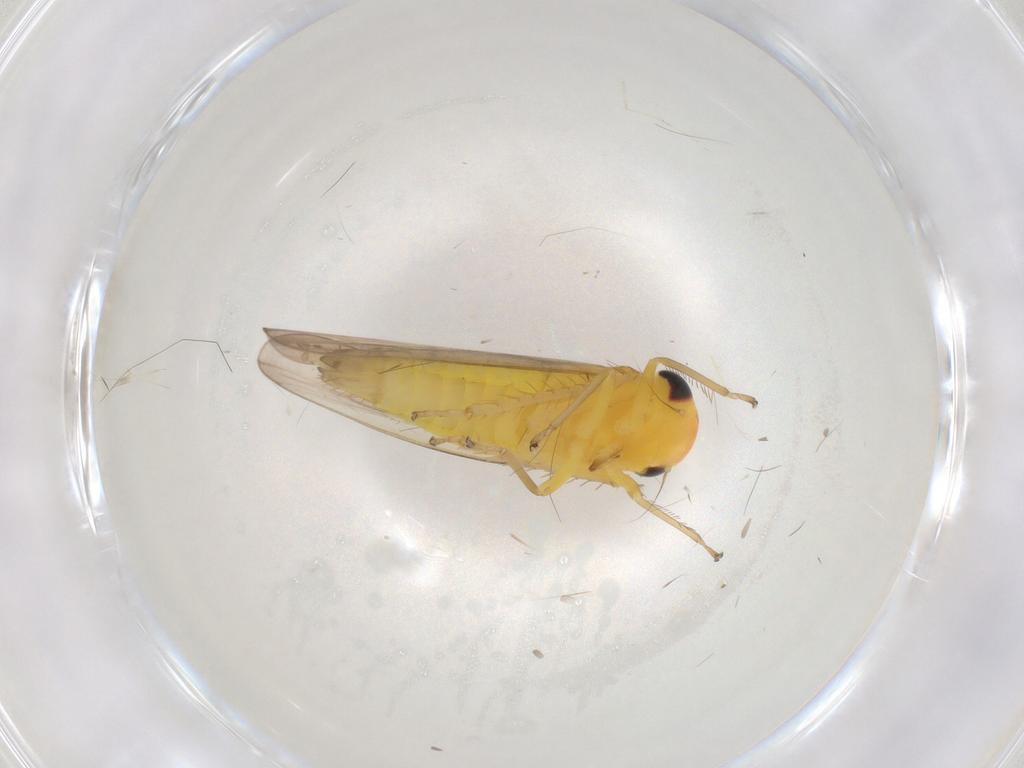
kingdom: Animalia
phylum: Arthropoda
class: Insecta
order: Hemiptera
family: Cicadellidae
